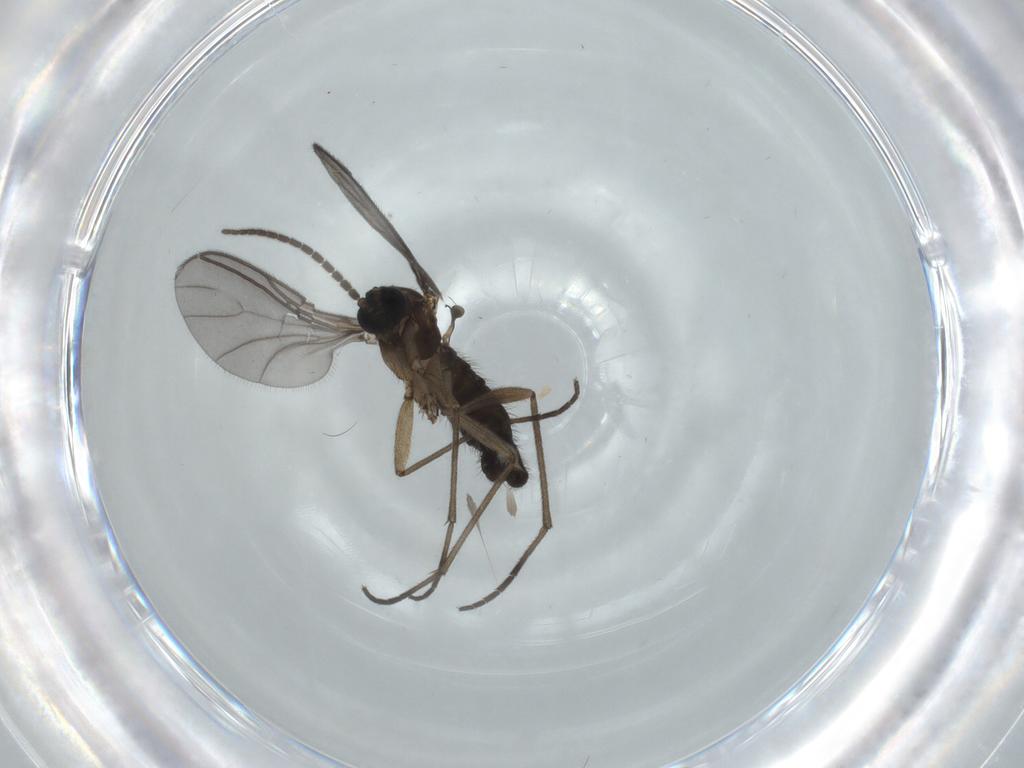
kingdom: Animalia
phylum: Arthropoda
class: Insecta
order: Diptera
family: Sciaridae
